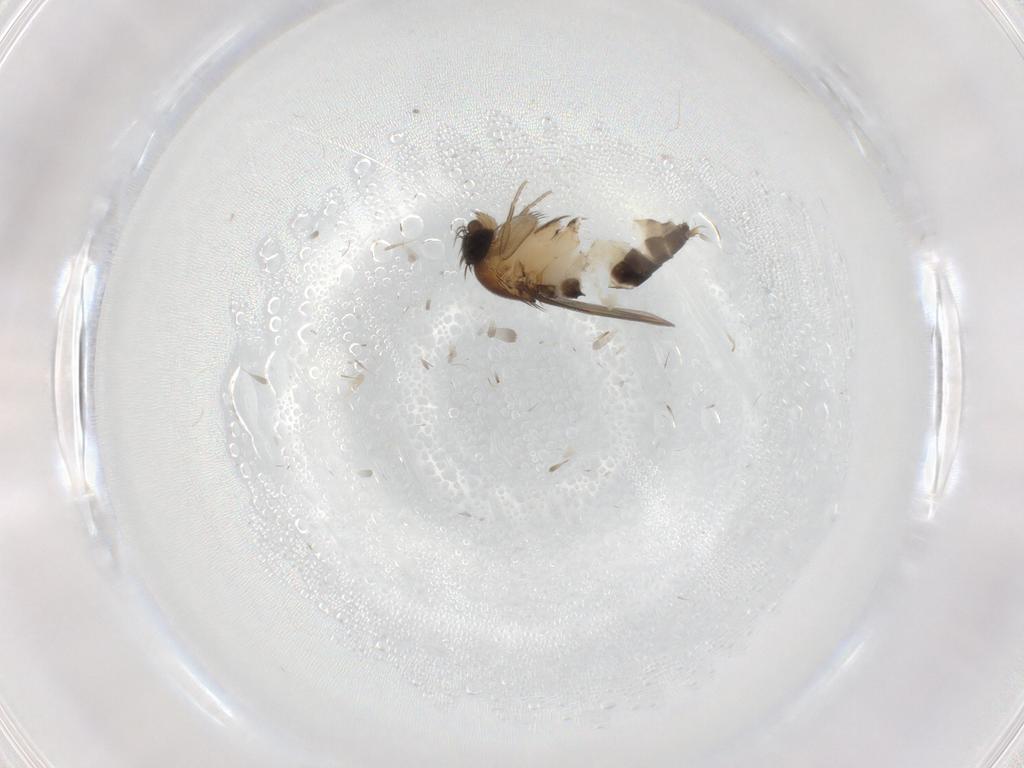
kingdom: Animalia
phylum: Arthropoda
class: Insecta
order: Diptera
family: Phoridae
